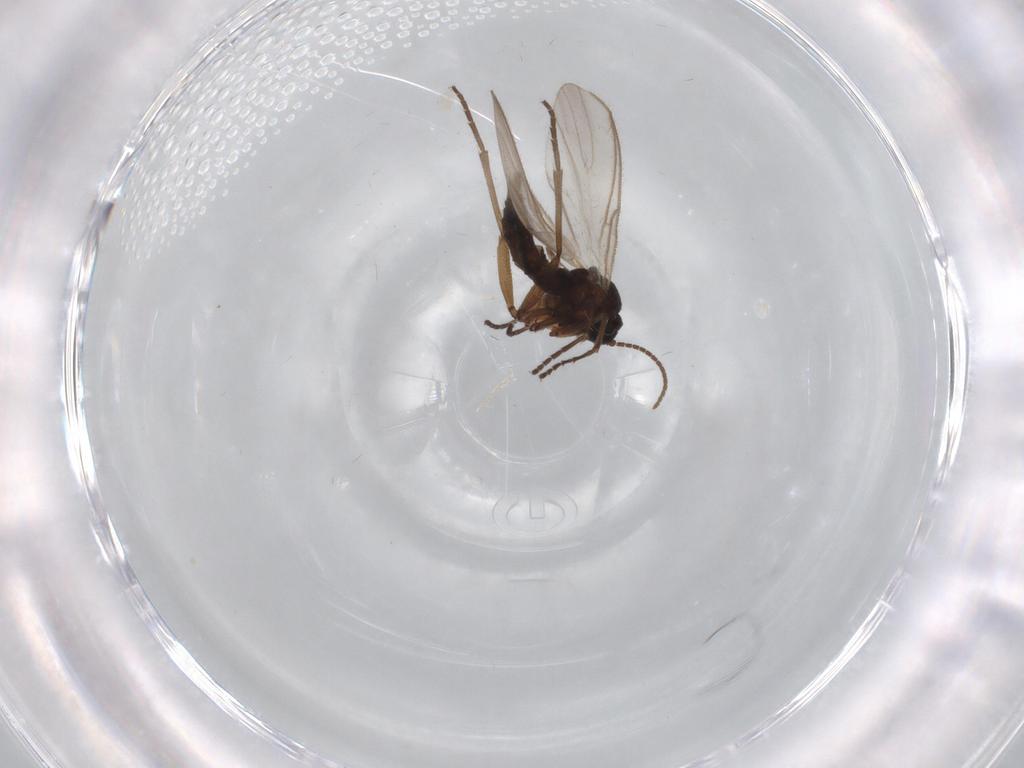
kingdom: Animalia
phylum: Arthropoda
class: Insecta
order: Diptera
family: Sciaridae
